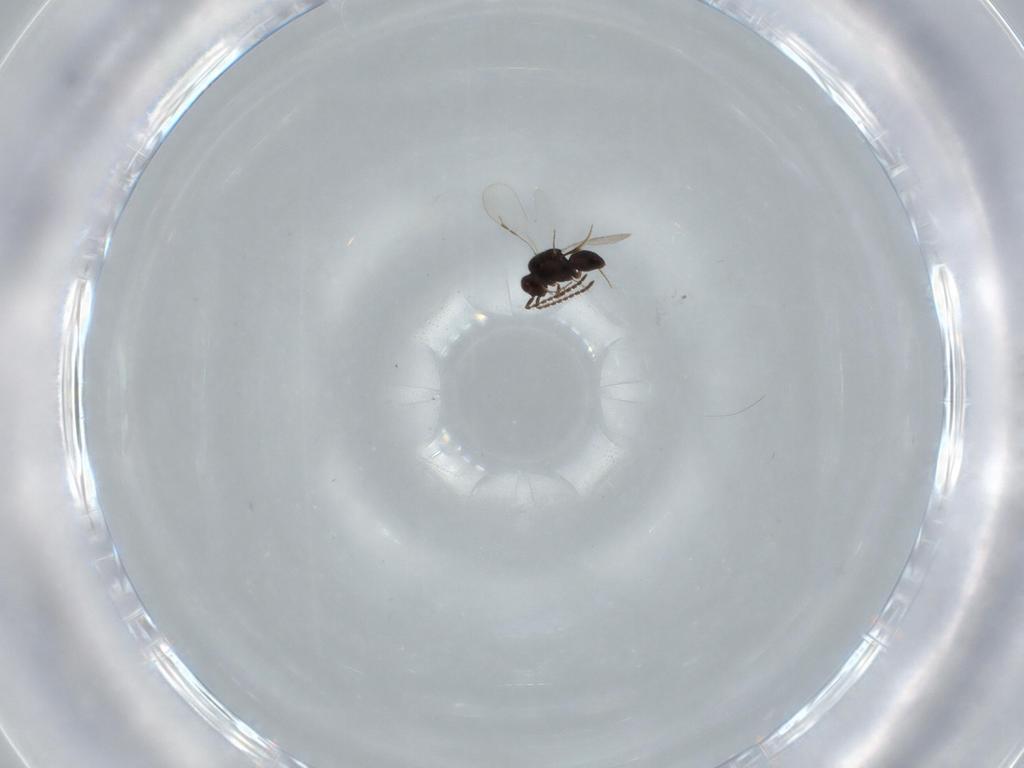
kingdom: Animalia
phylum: Arthropoda
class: Insecta
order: Hymenoptera
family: Ceraphronidae
